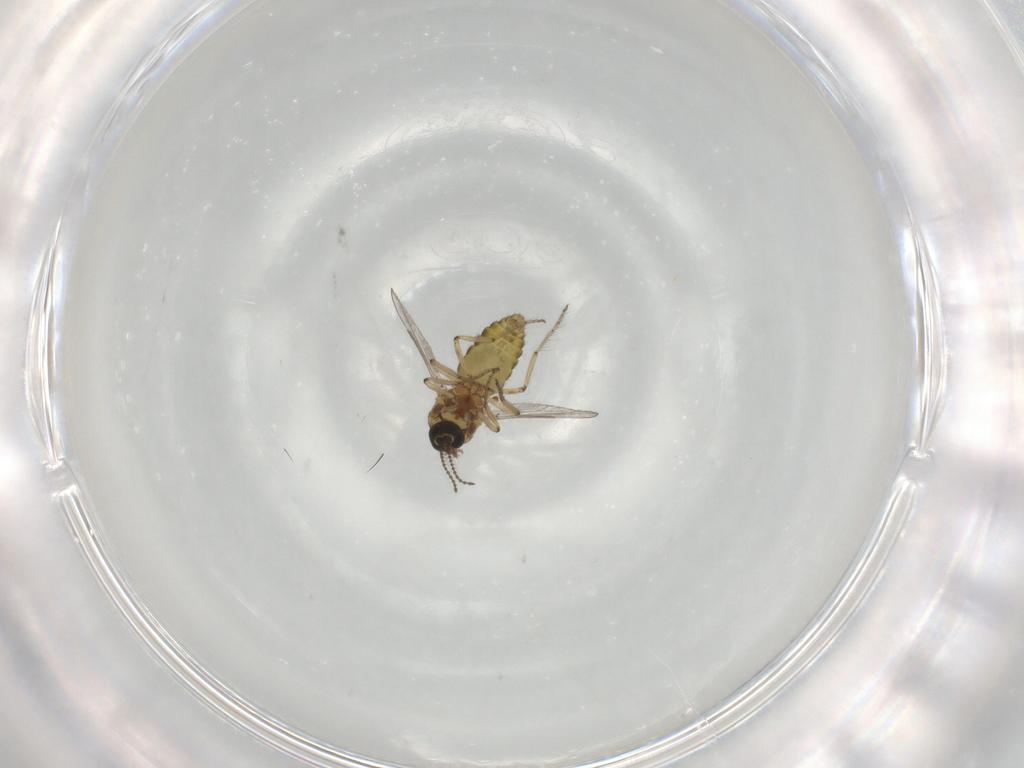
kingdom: Animalia
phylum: Arthropoda
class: Insecta
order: Diptera
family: Ceratopogonidae
